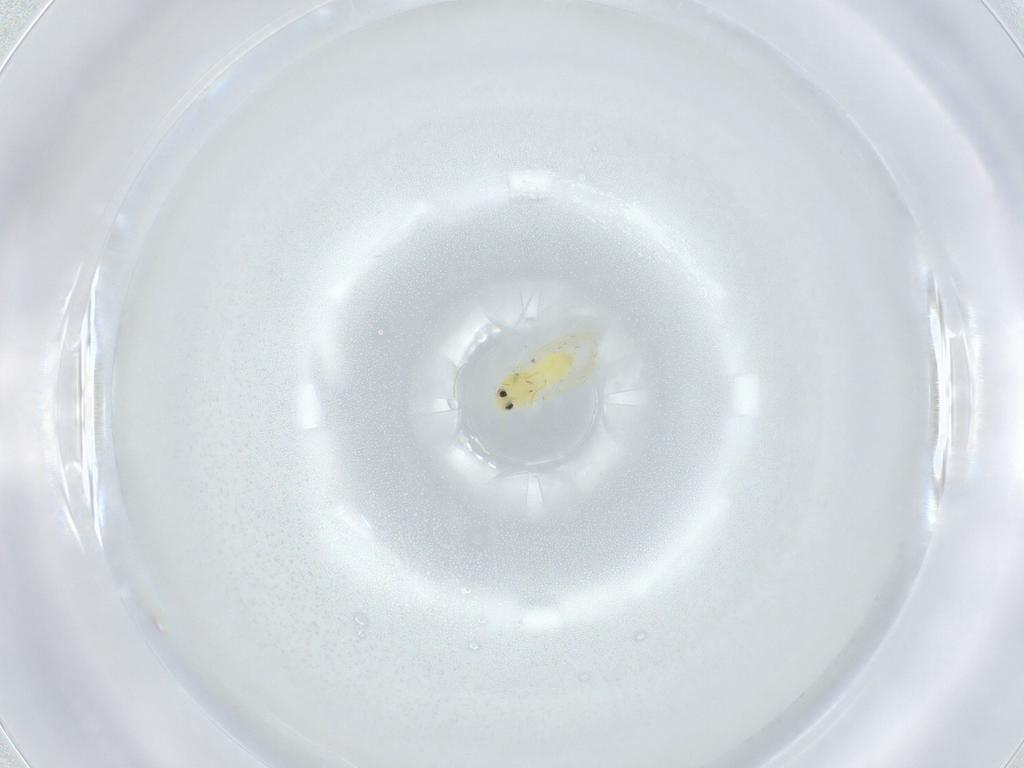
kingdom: Animalia
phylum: Arthropoda
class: Insecta
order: Hemiptera
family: Aleyrodidae
